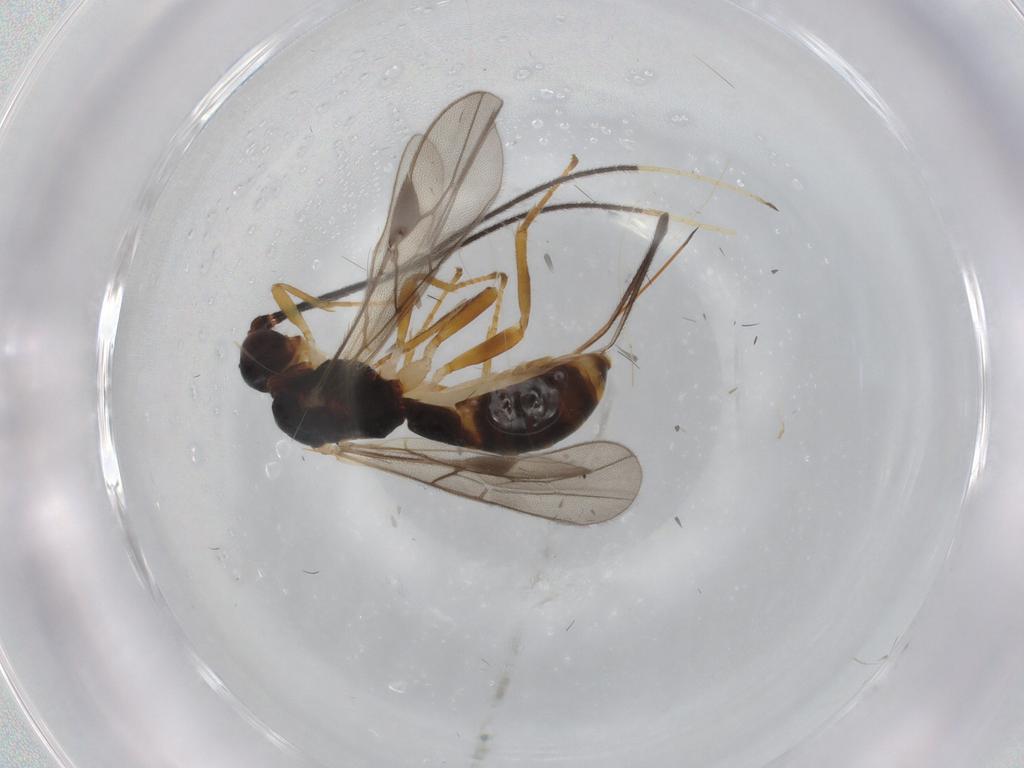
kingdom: Animalia
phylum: Arthropoda
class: Insecta
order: Hymenoptera
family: Braconidae
